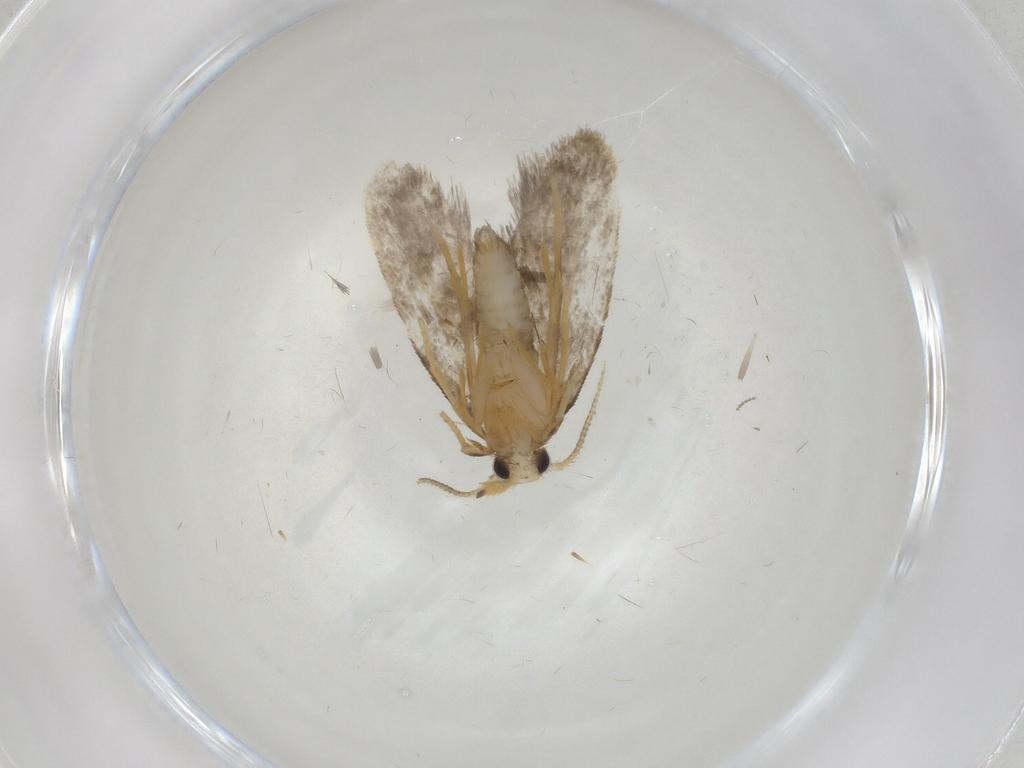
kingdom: Animalia
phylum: Arthropoda
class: Insecta
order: Lepidoptera
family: Psychidae
